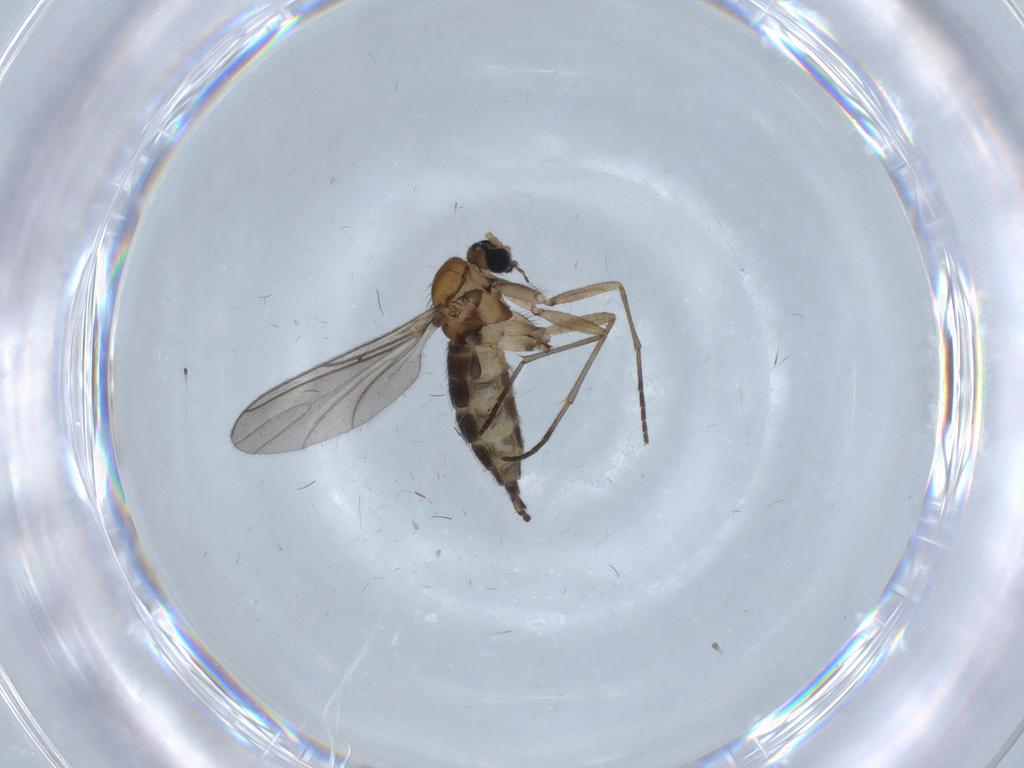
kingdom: Animalia
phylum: Arthropoda
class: Insecta
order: Diptera
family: Sciaridae
